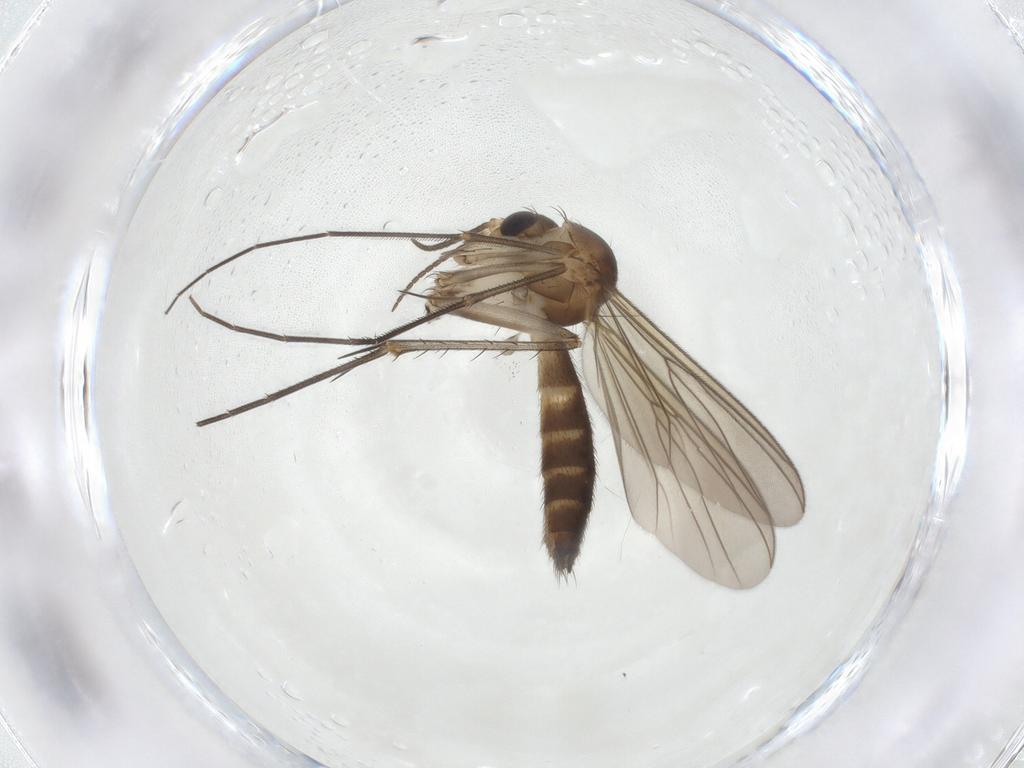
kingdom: Animalia
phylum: Arthropoda
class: Insecta
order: Diptera
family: Mycetophilidae
